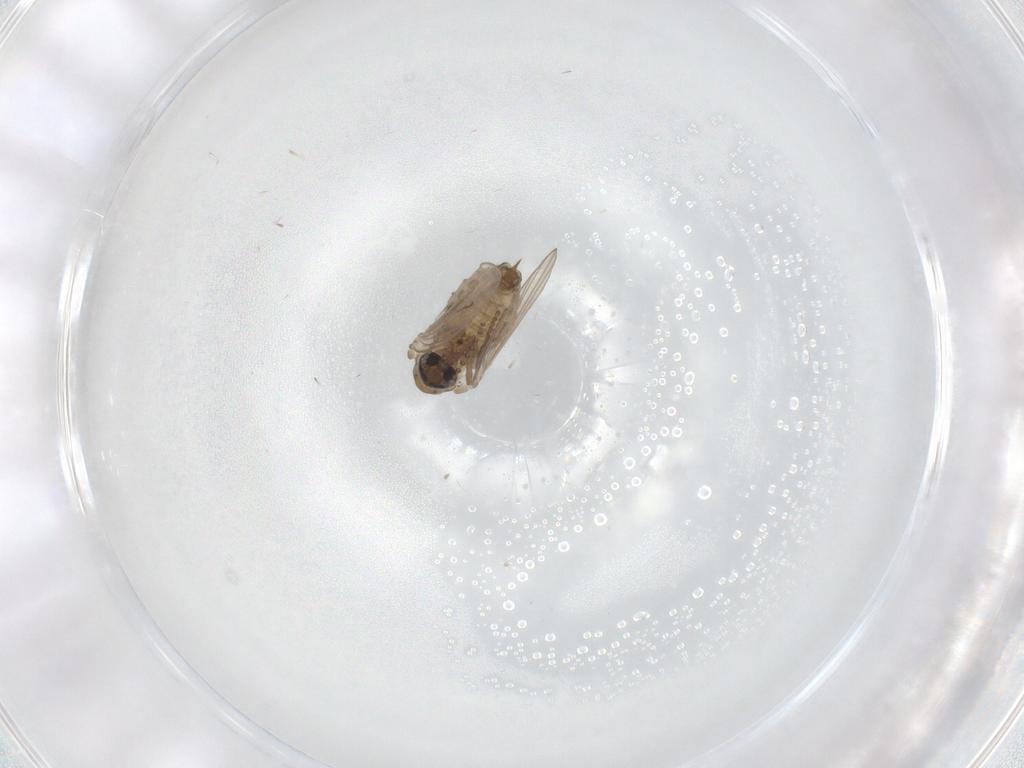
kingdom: Animalia
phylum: Arthropoda
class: Insecta
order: Diptera
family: Psychodidae
